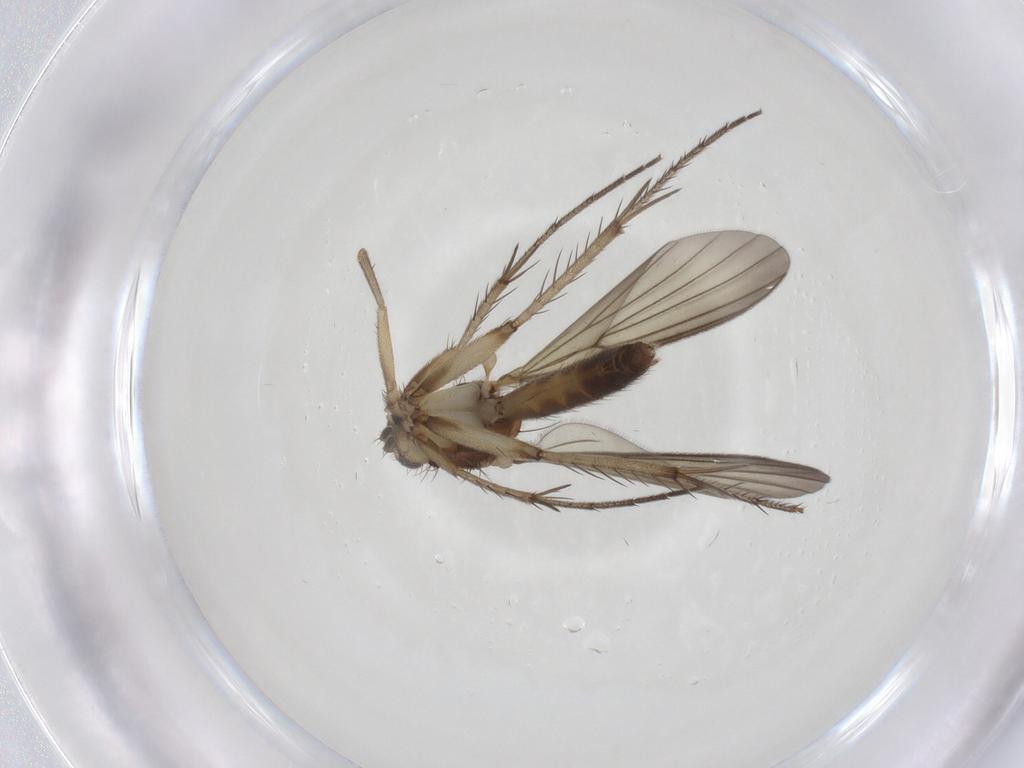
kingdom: Animalia
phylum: Arthropoda
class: Insecta
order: Diptera
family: Mycetophilidae
